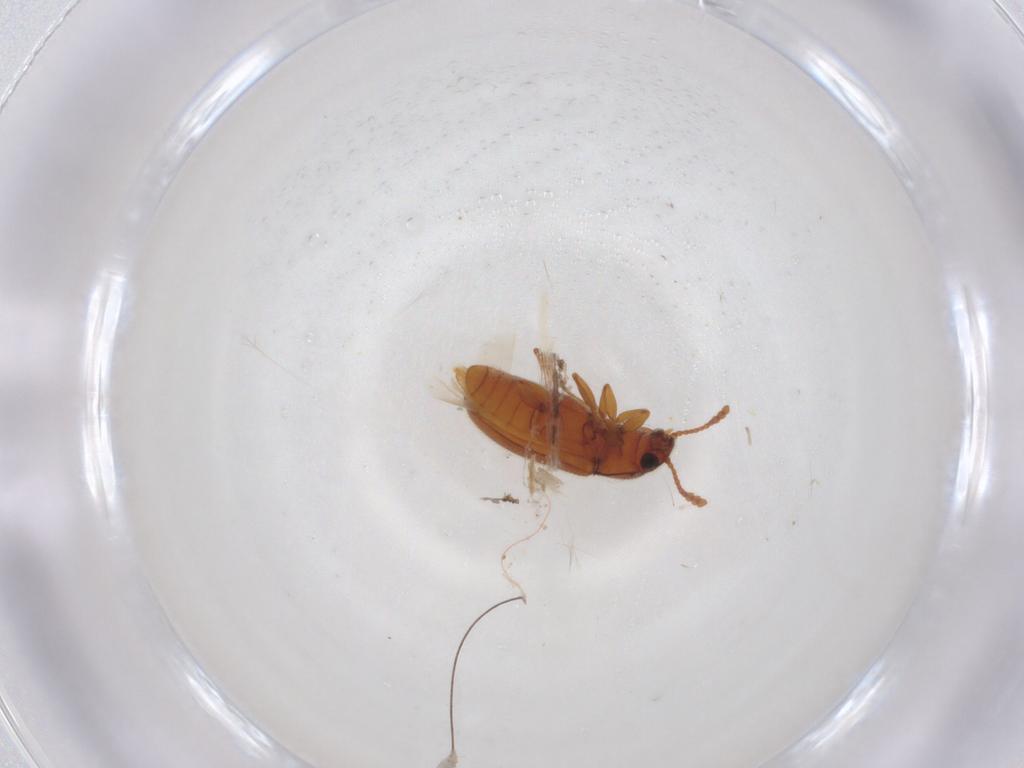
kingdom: Animalia
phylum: Arthropoda
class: Insecta
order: Coleoptera
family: Erotylidae
